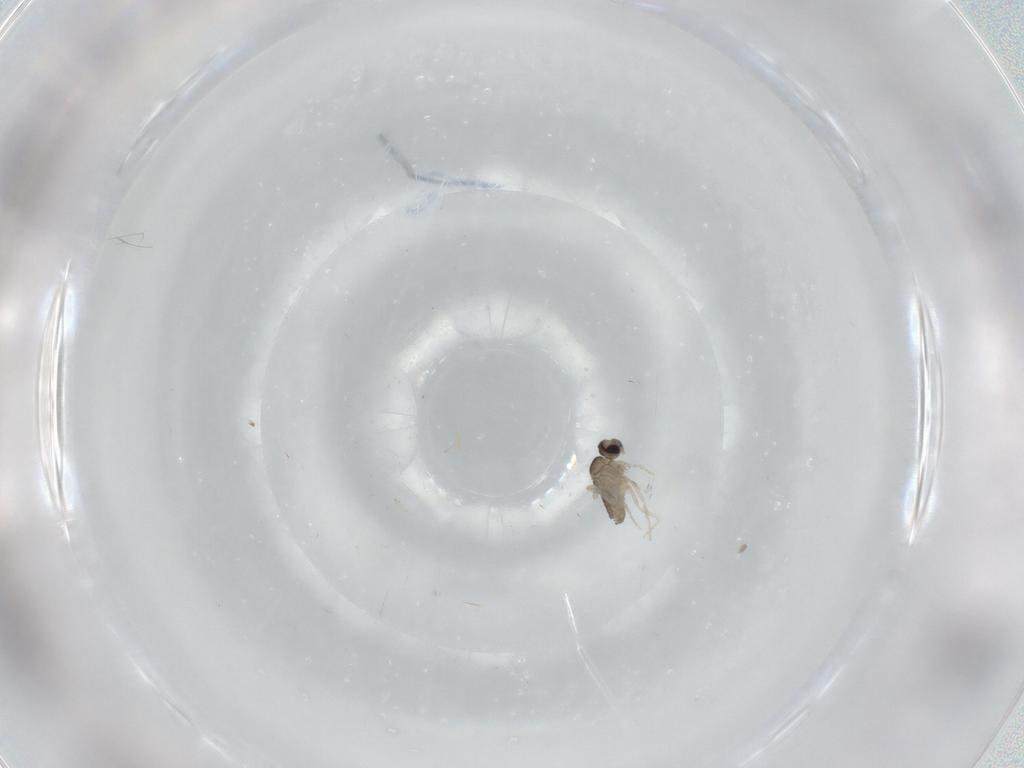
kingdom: Animalia
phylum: Arthropoda
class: Insecta
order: Diptera
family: Cecidomyiidae
